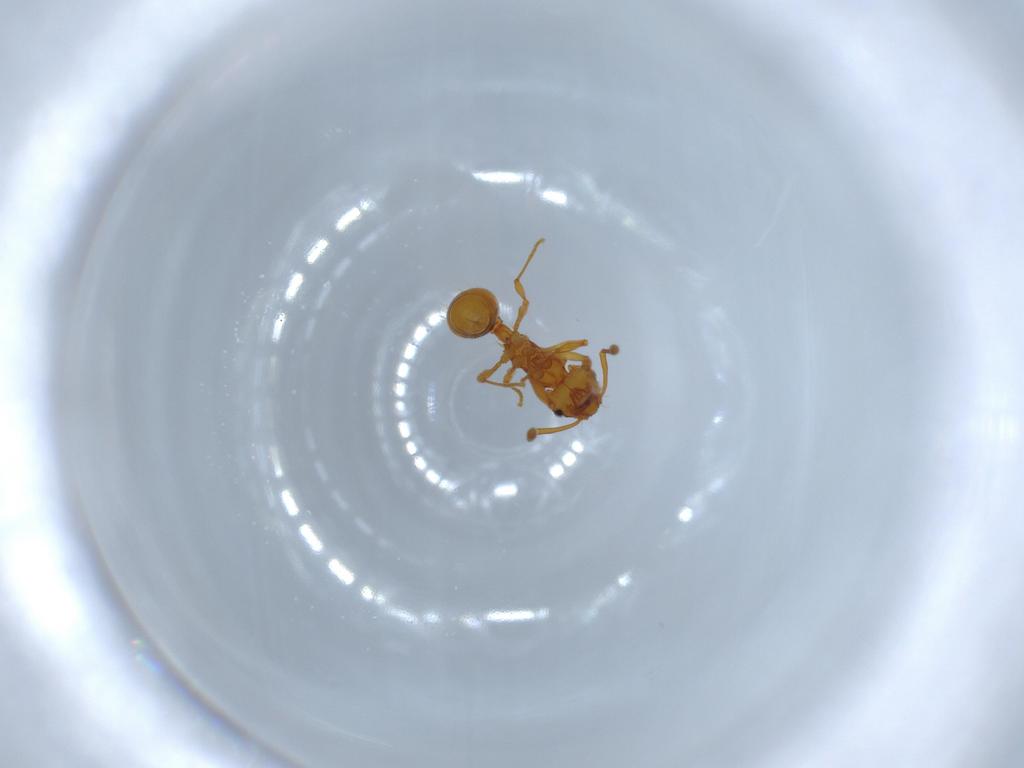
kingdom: Animalia
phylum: Arthropoda
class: Insecta
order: Hymenoptera
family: Formicidae
